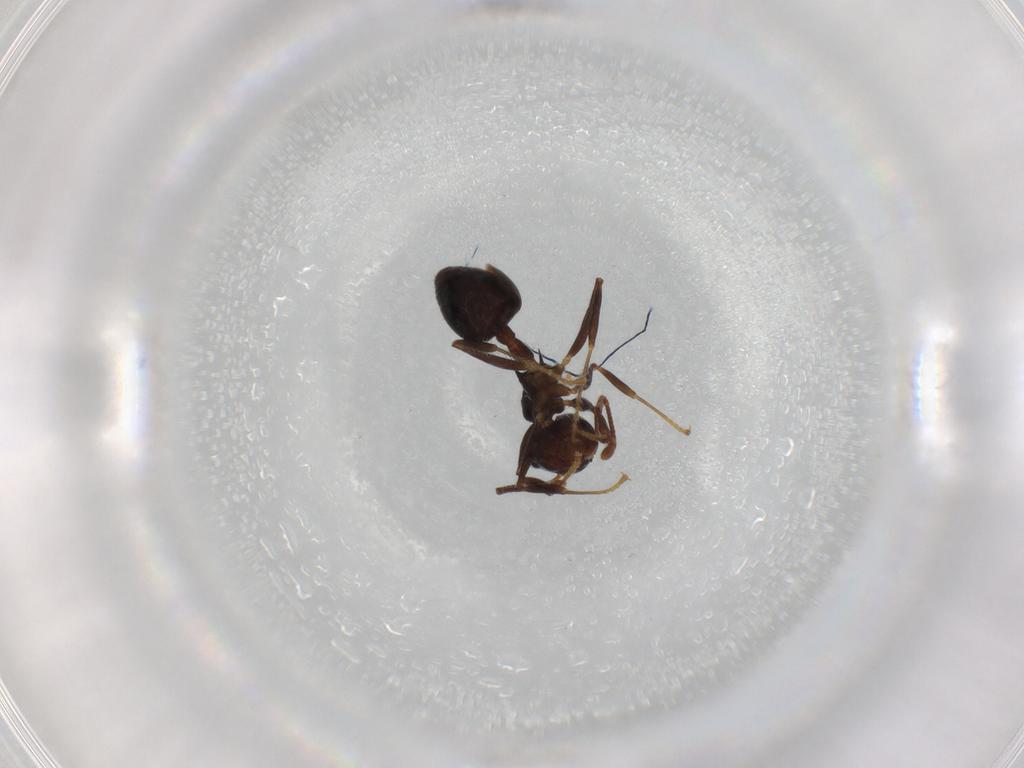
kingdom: Animalia
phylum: Arthropoda
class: Insecta
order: Hymenoptera
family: Formicidae
